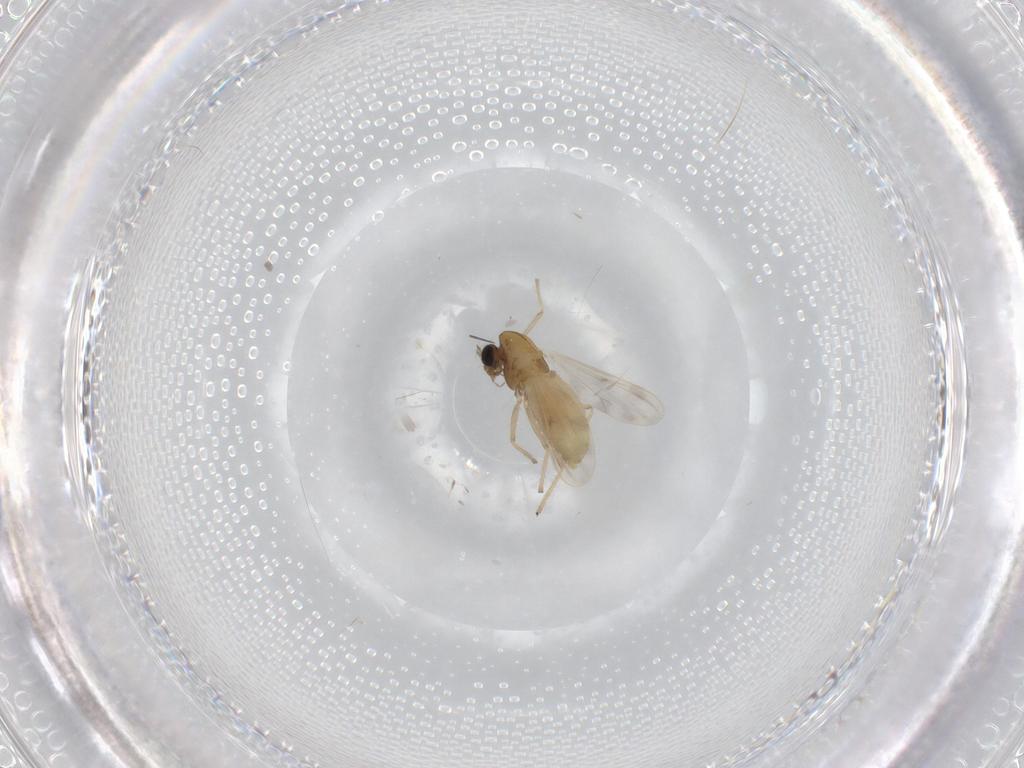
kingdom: Animalia
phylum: Arthropoda
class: Insecta
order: Diptera
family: Chironomidae
